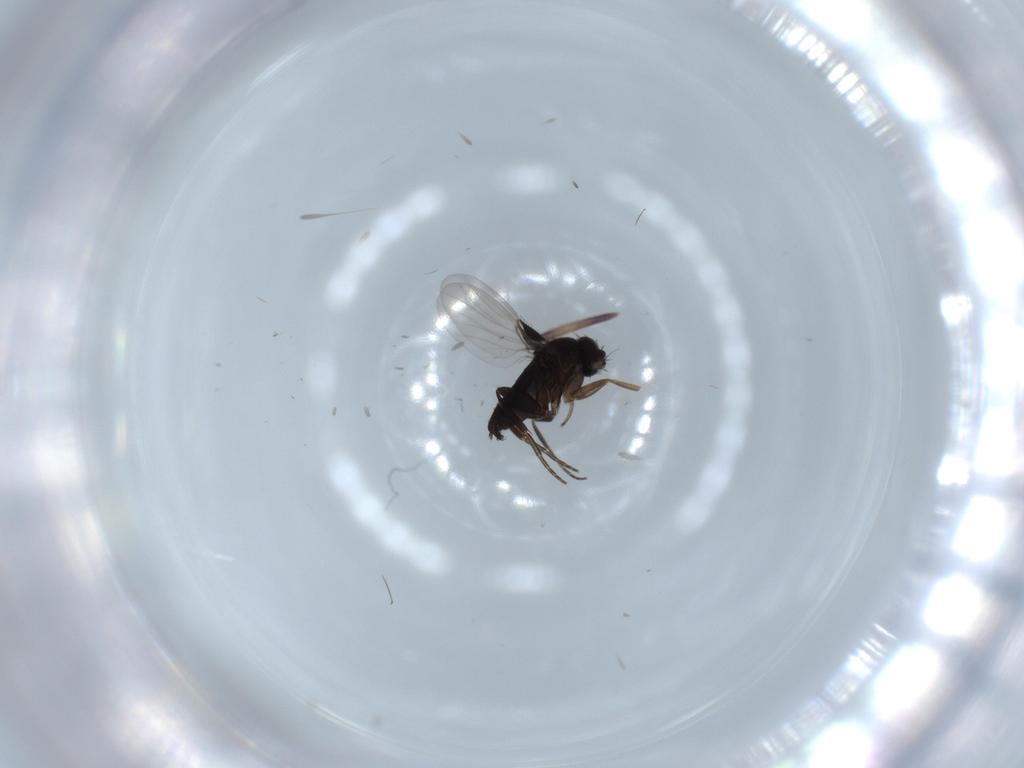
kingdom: Animalia
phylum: Arthropoda
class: Insecta
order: Diptera
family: Phoridae
